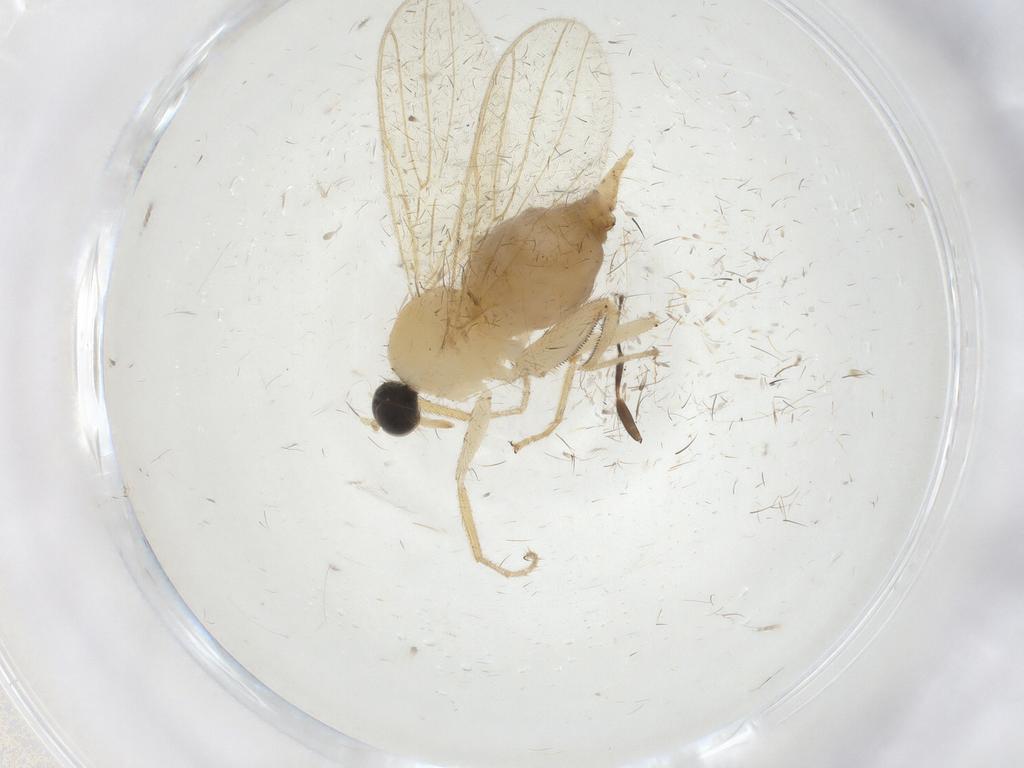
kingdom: Animalia
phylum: Arthropoda
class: Insecta
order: Diptera
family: Hybotidae
